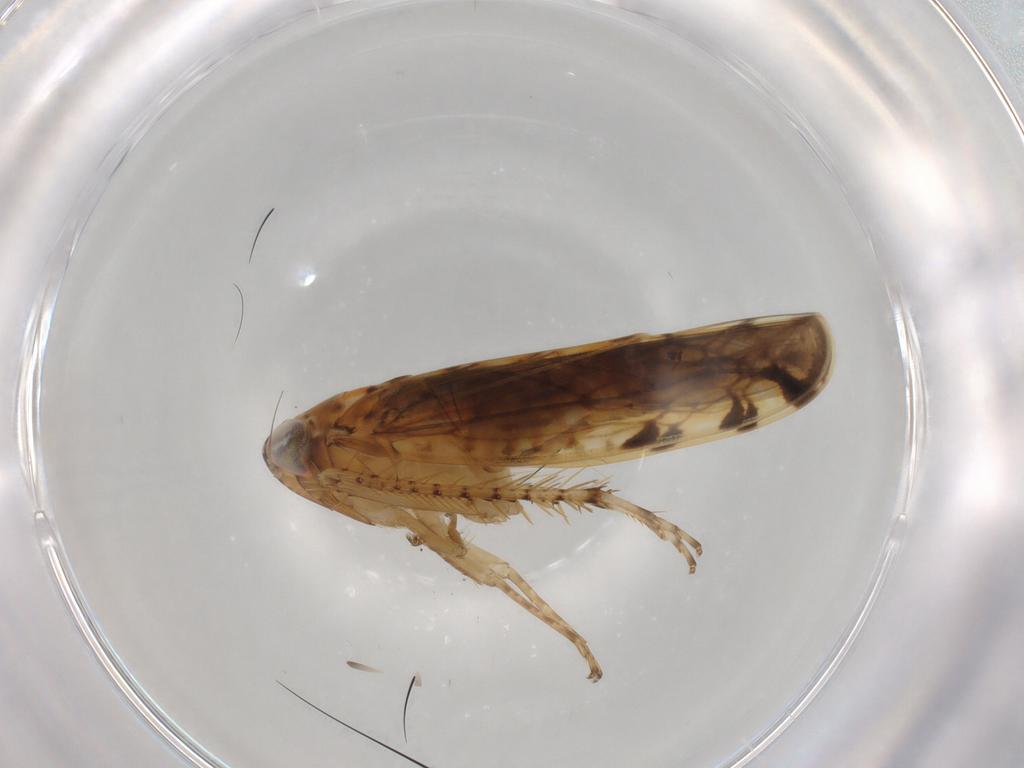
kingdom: Animalia
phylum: Arthropoda
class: Insecta
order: Hemiptera
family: Cicadellidae
